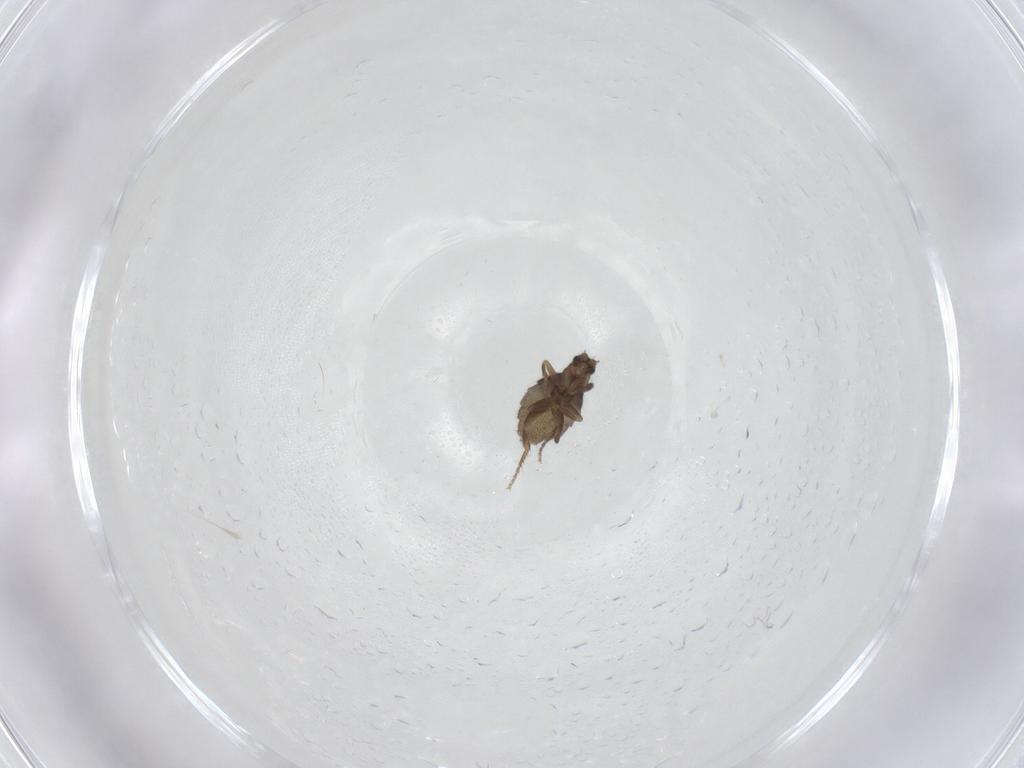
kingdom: Animalia
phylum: Arthropoda
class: Insecta
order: Diptera
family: Phoridae
